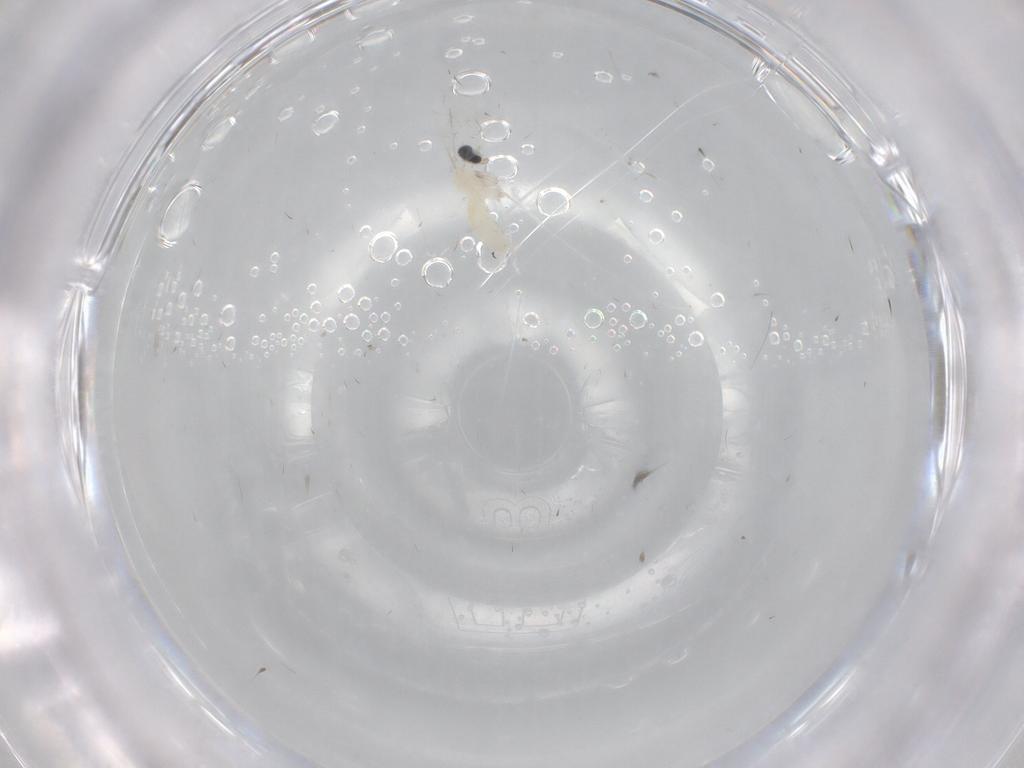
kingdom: Animalia
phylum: Arthropoda
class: Insecta
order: Diptera
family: Cecidomyiidae
